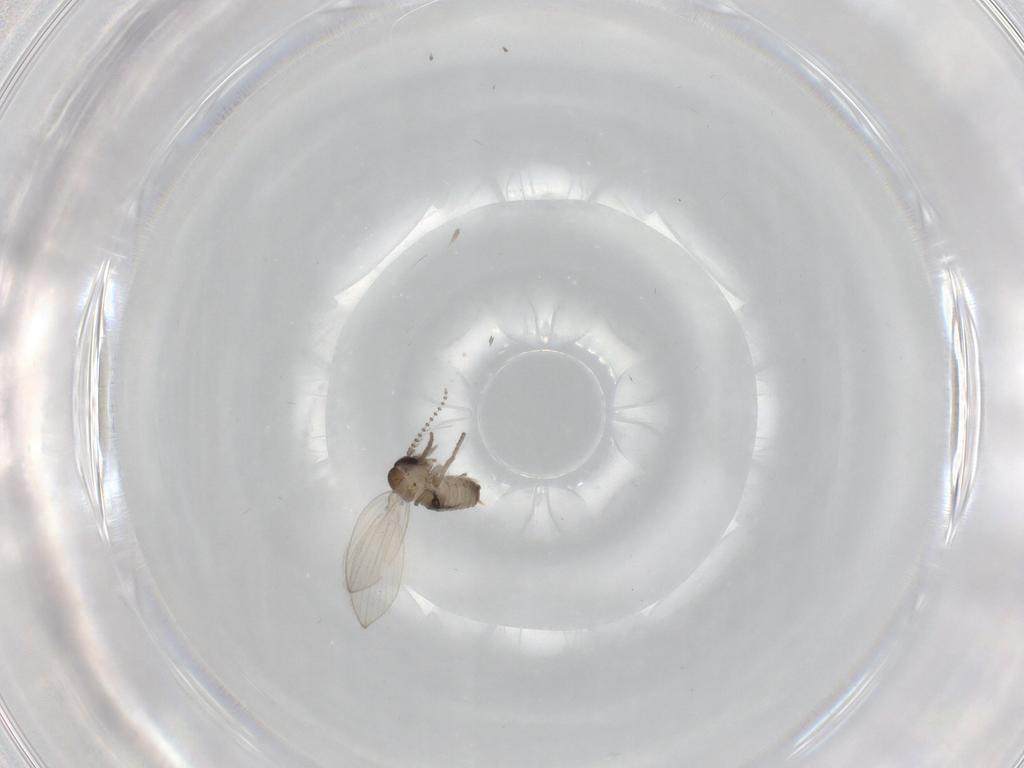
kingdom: Animalia
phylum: Arthropoda
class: Insecta
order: Diptera
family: Psychodidae
